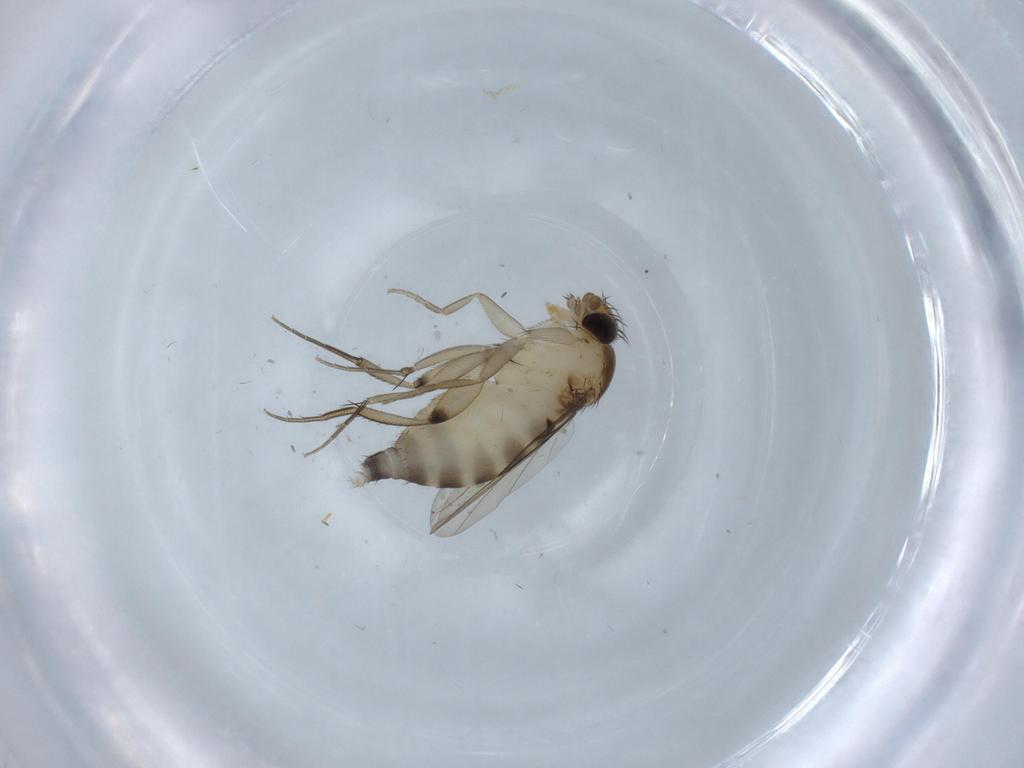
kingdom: Animalia
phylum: Arthropoda
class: Insecta
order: Diptera
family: Phoridae
